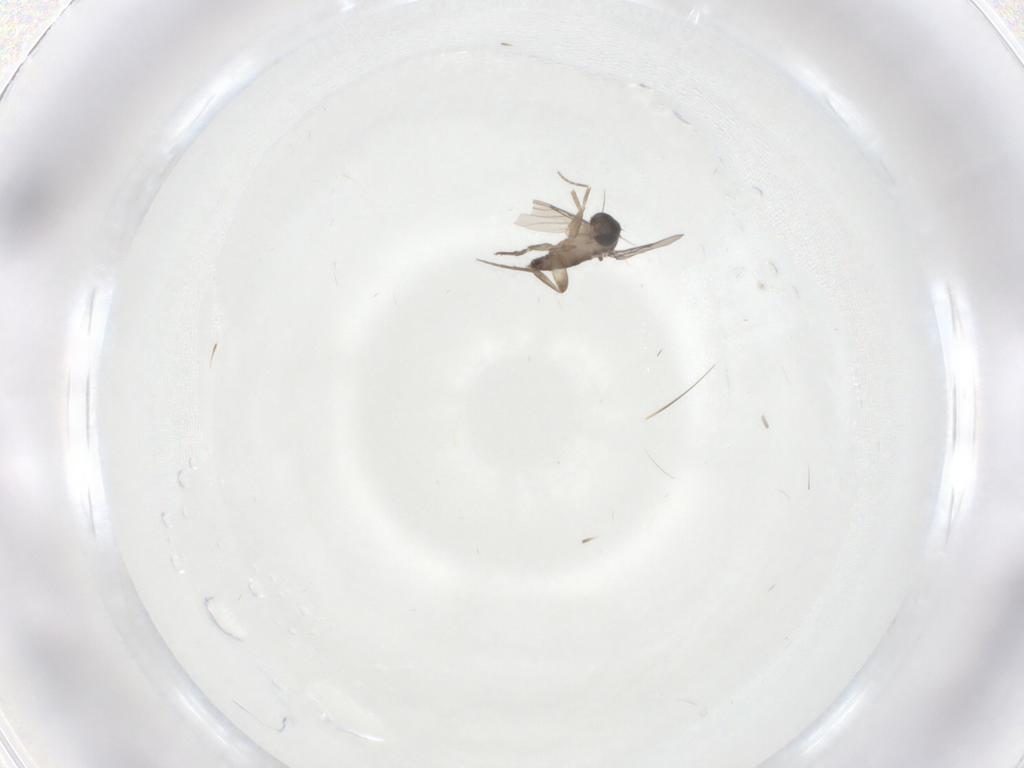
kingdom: Animalia
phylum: Arthropoda
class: Insecta
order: Diptera
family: Phoridae
